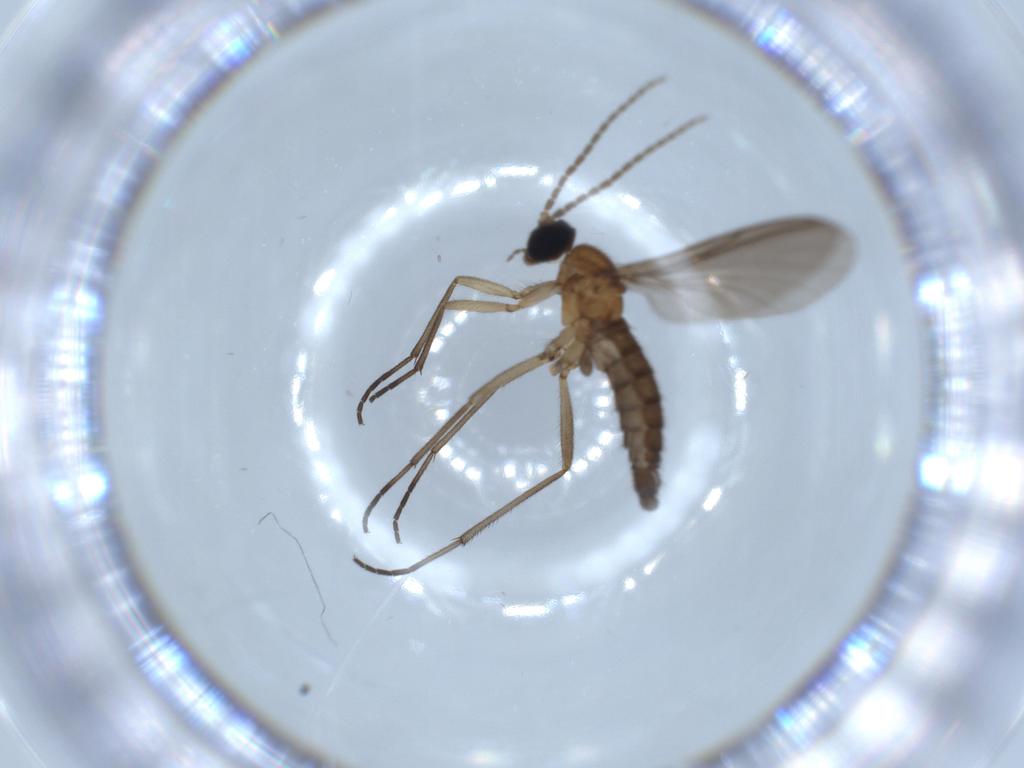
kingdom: Animalia
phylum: Arthropoda
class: Insecta
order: Diptera
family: Sciaridae
